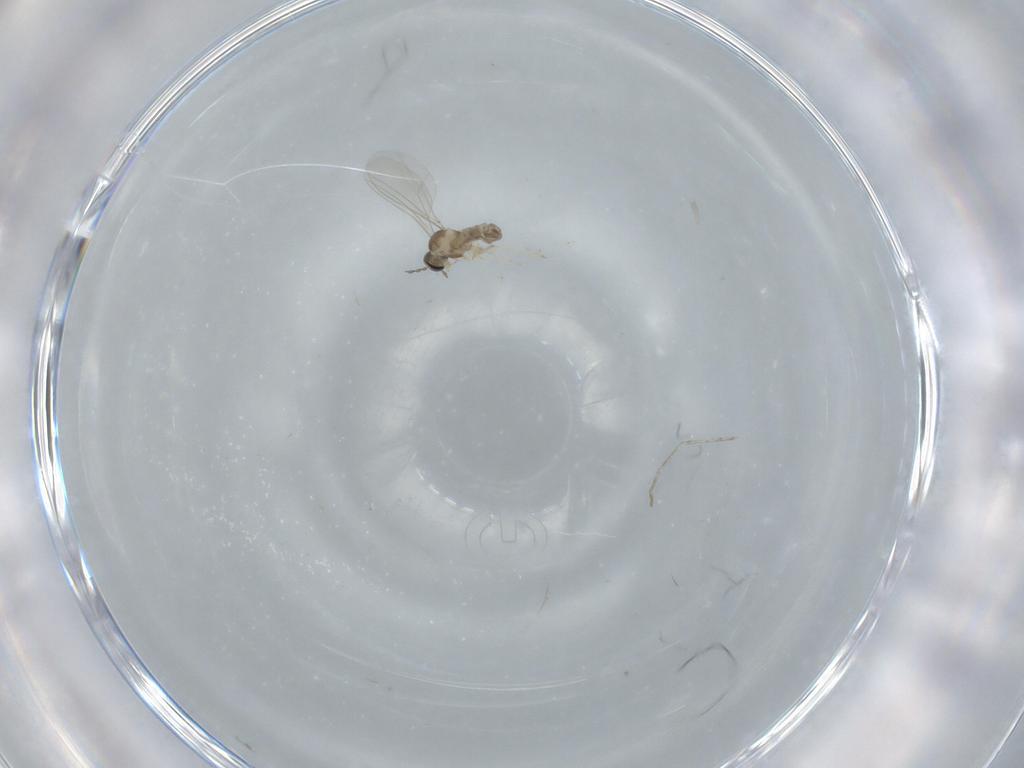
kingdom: Animalia
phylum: Arthropoda
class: Insecta
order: Diptera
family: Cecidomyiidae
